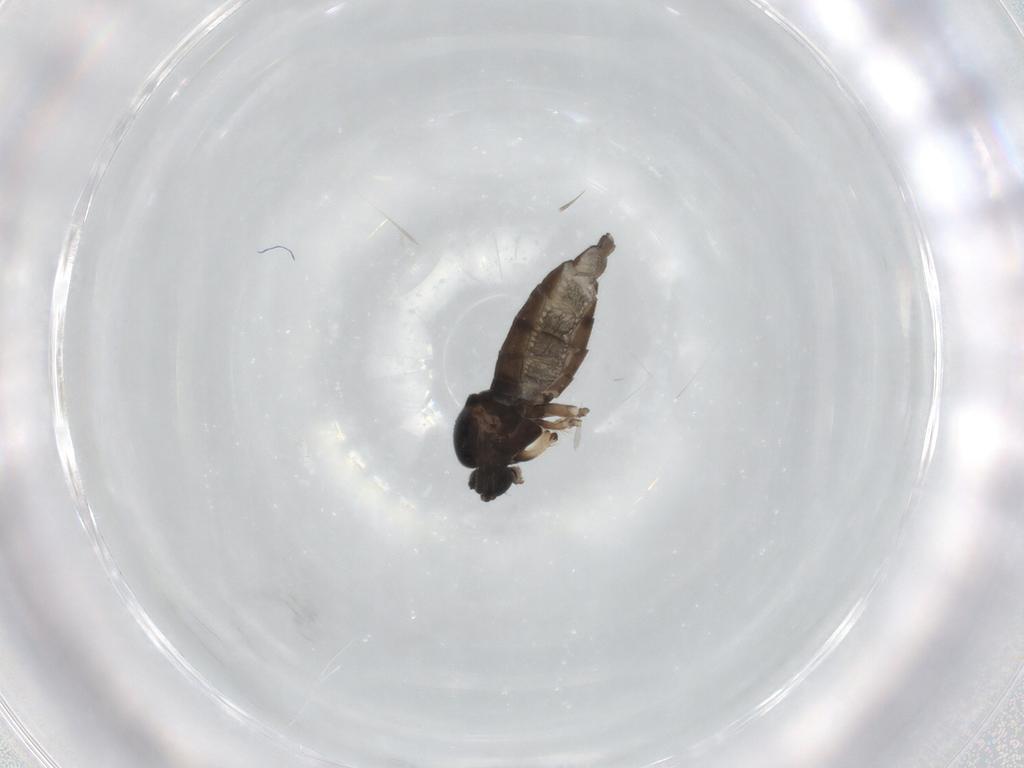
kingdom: Animalia
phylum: Arthropoda
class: Insecta
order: Diptera
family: Sciaridae
